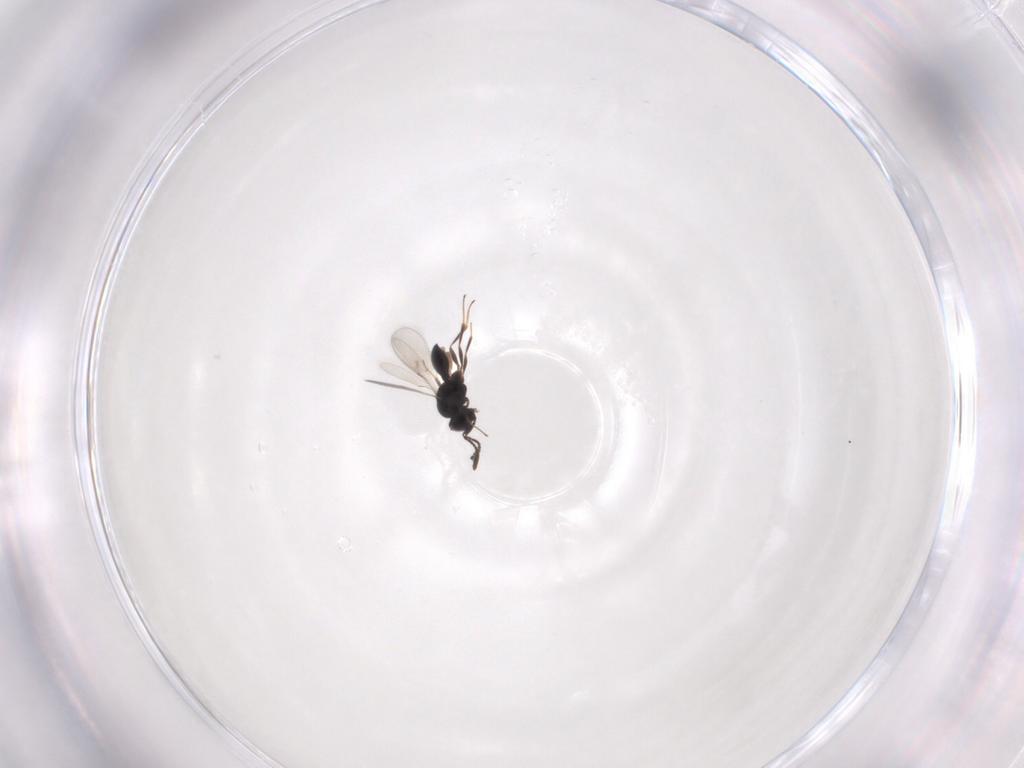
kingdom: Animalia
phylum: Arthropoda
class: Insecta
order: Hymenoptera
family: Scelionidae
